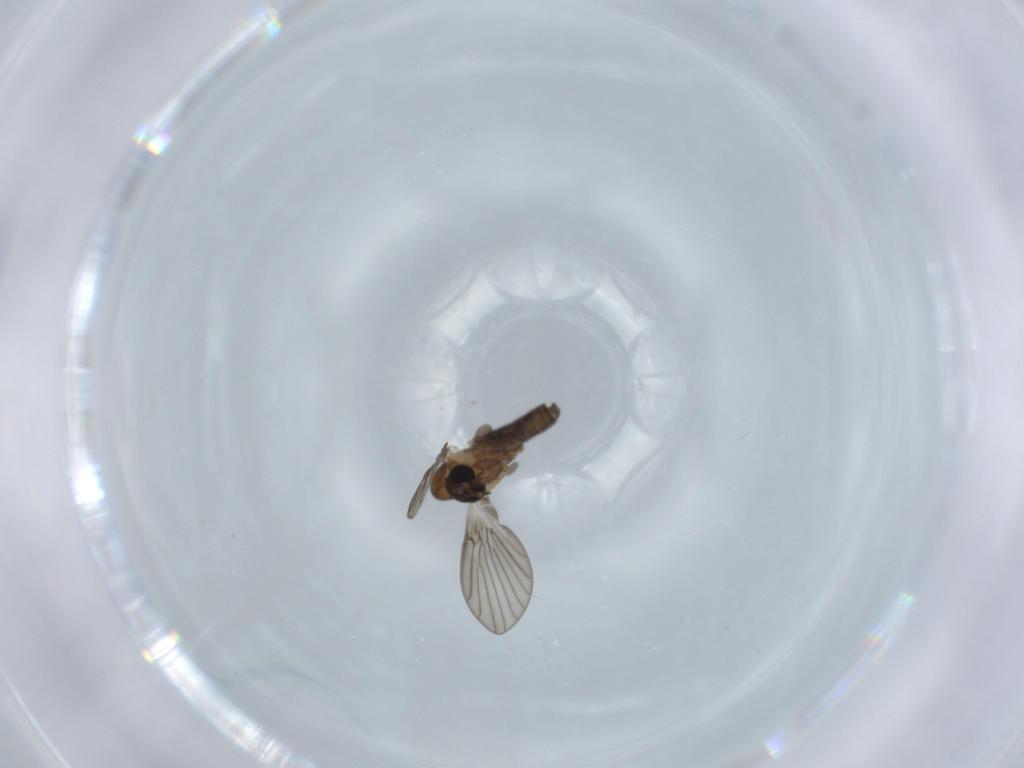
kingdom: Animalia
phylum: Arthropoda
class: Insecta
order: Diptera
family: Psychodidae
